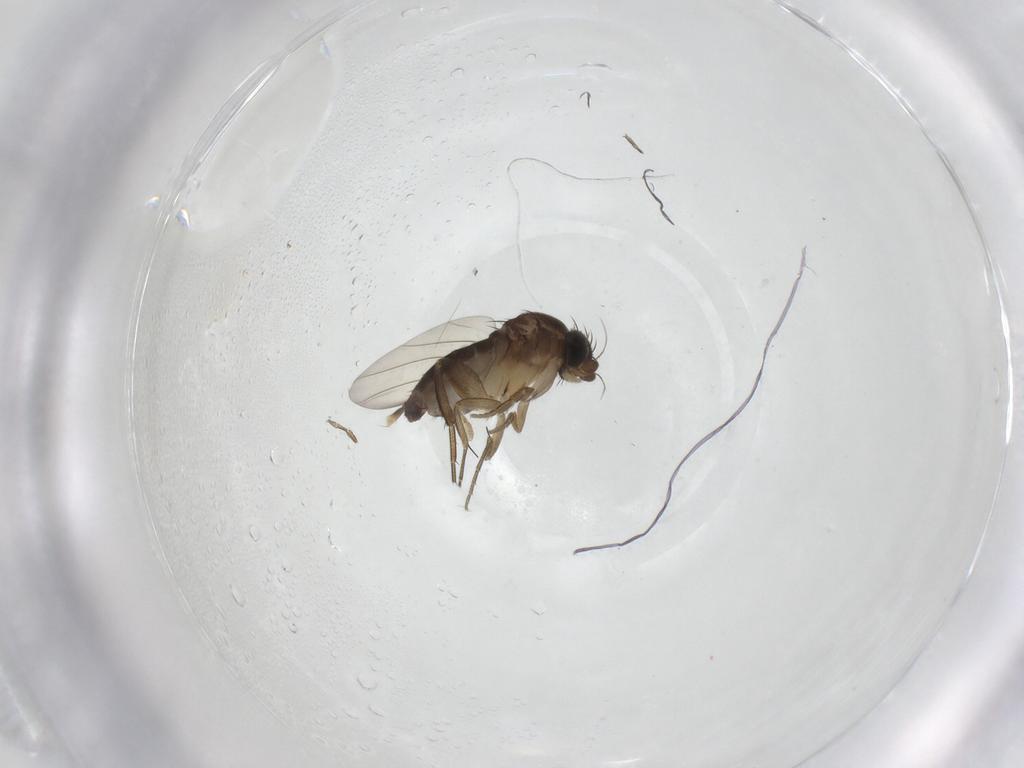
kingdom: Animalia
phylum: Arthropoda
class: Insecta
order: Diptera
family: Phoridae
